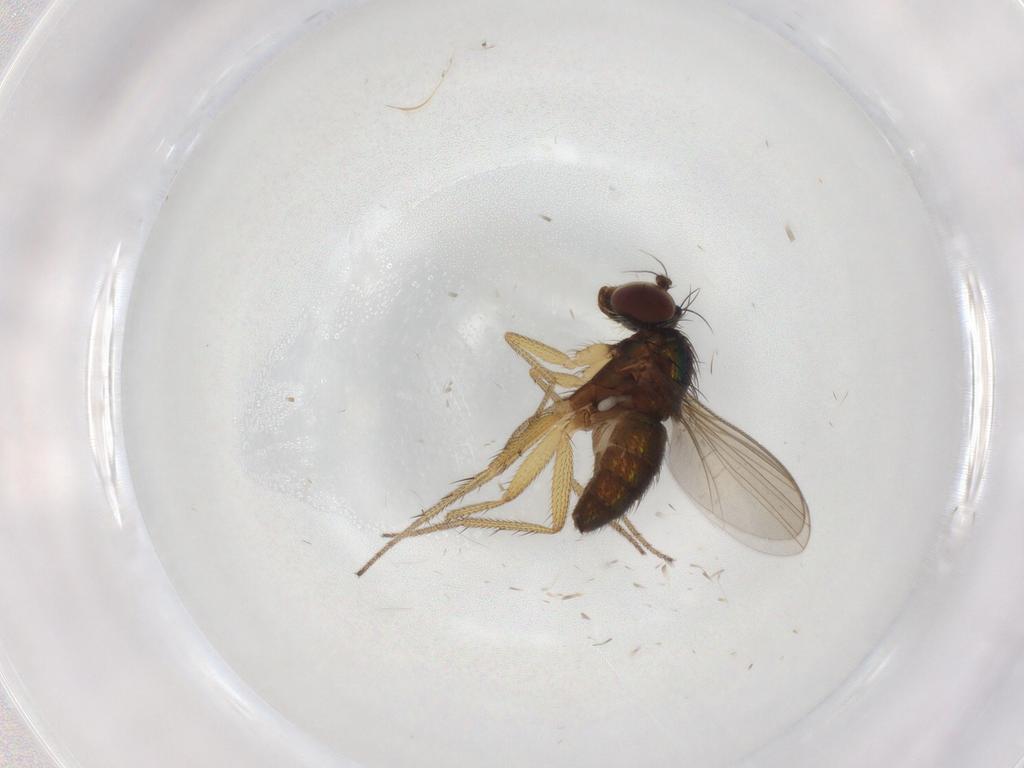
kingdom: Animalia
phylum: Arthropoda
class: Insecta
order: Diptera
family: Dolichopodidae
